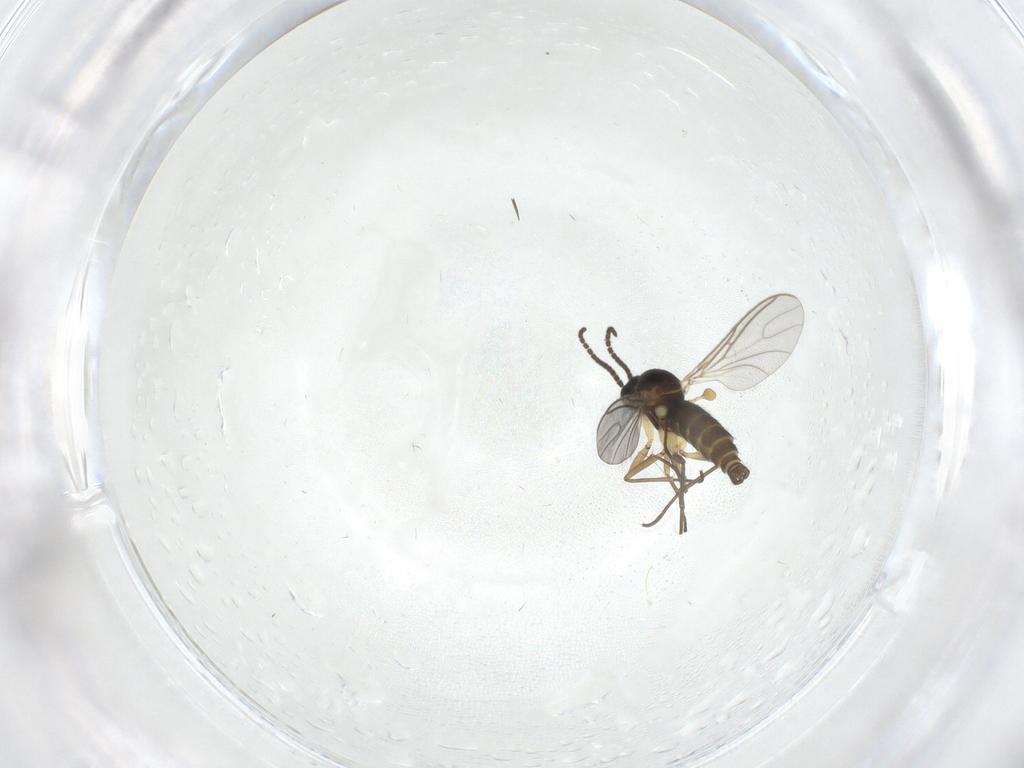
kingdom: Animalia
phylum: Arthropoda
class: Insecta
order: Diptera
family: Sciaridae
